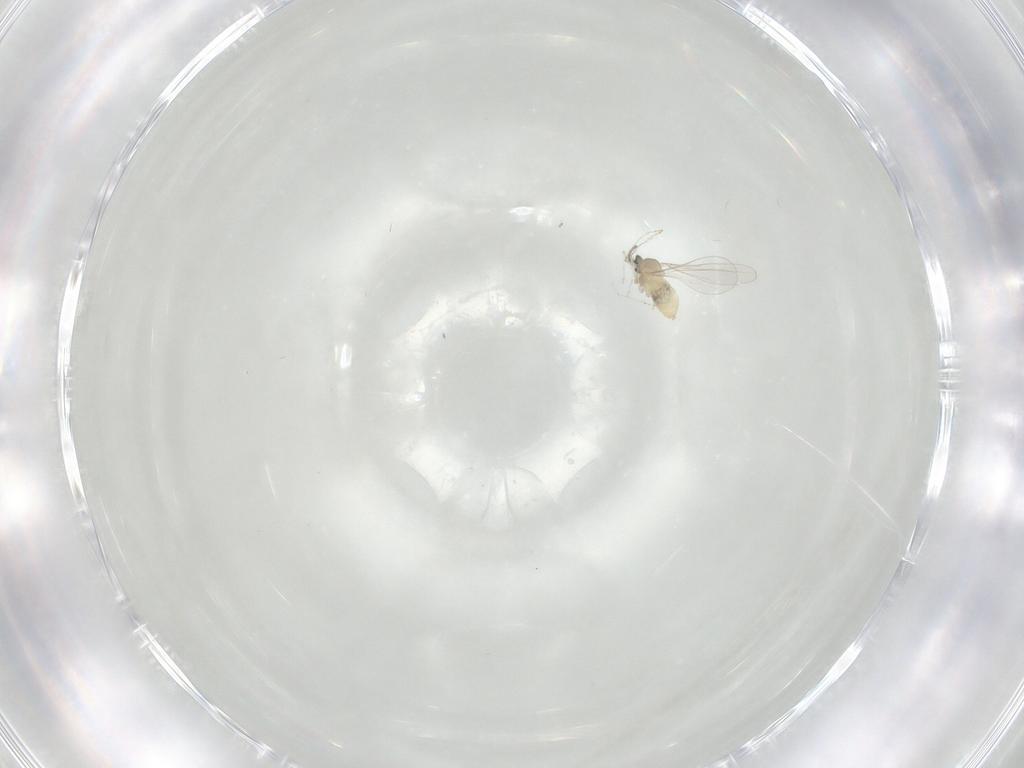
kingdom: Animalia
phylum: Arthropoda
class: Insecta
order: Diptera
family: Cecidomyiidae
